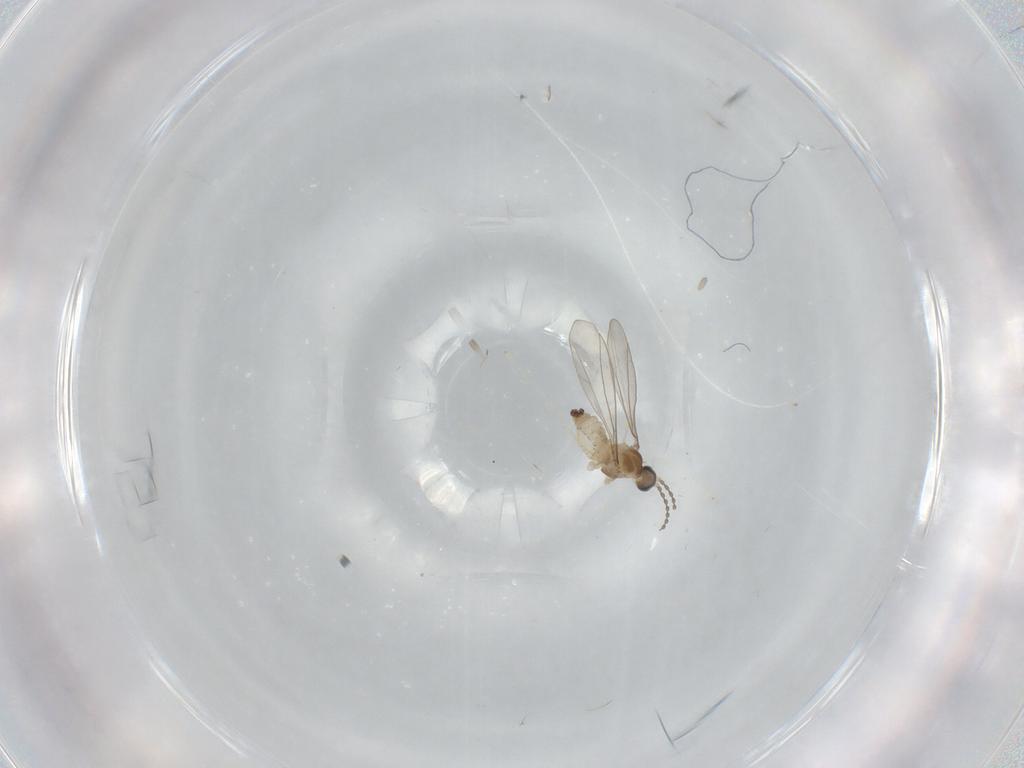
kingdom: Animalia
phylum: Arthropoda
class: Insecta
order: Diptera
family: Cecidomyiidae
